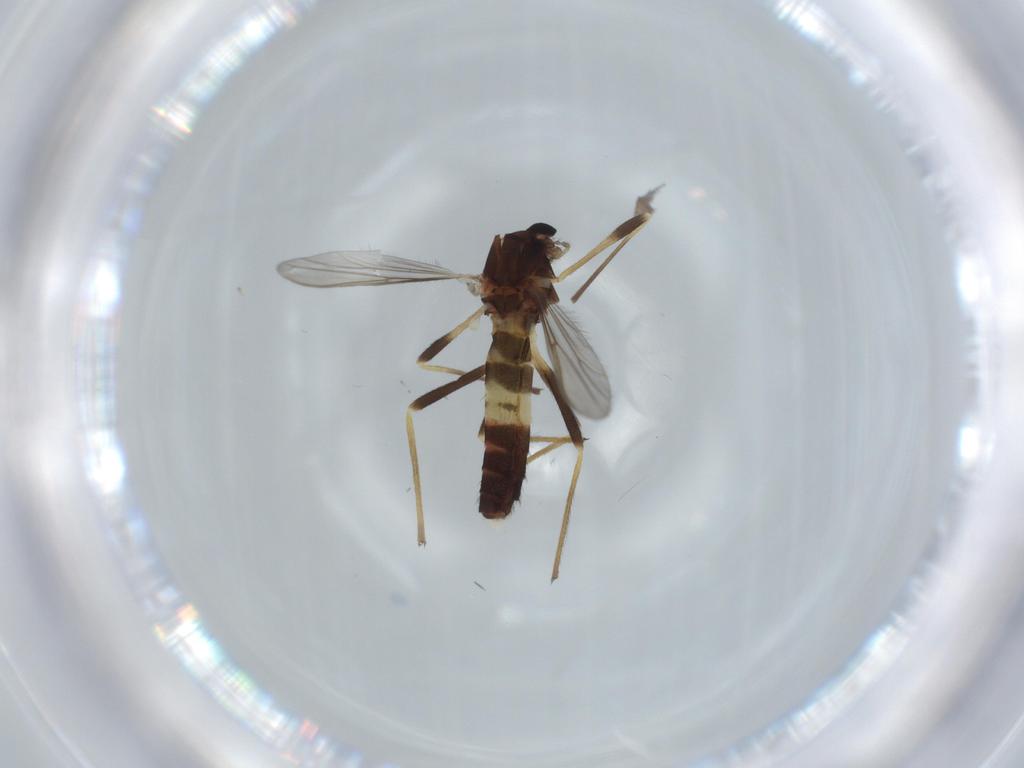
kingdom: Animalia
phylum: Arthropoda
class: Insecta
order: Diptera
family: Chironomidae
